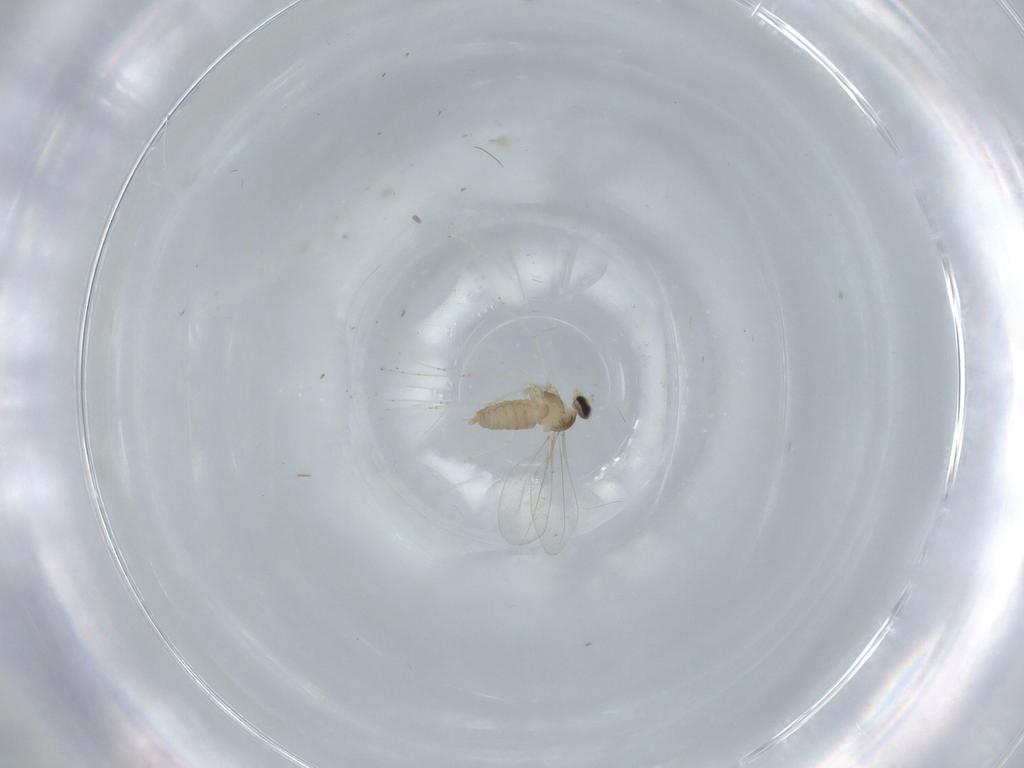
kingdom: Animalia
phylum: Arthropoda
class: Insecta
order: Diptera
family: Cecidomyiidae
